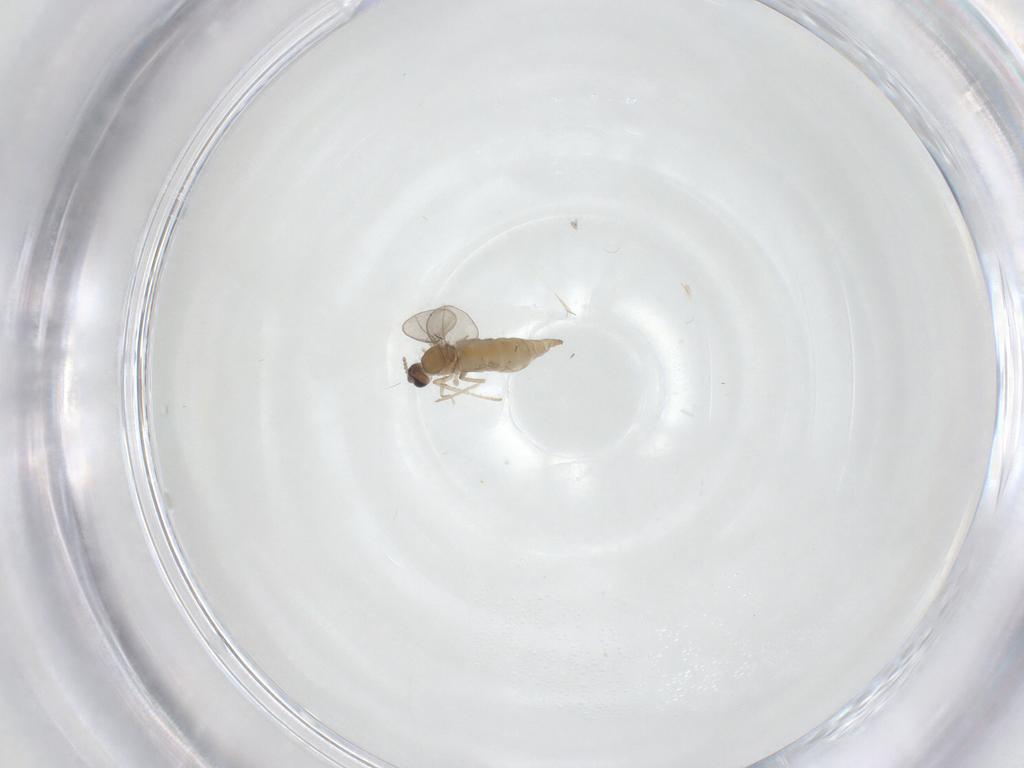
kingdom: Animalia
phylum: Arthropoda
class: Insecta
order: Diptera
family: Cecidomyiidae
